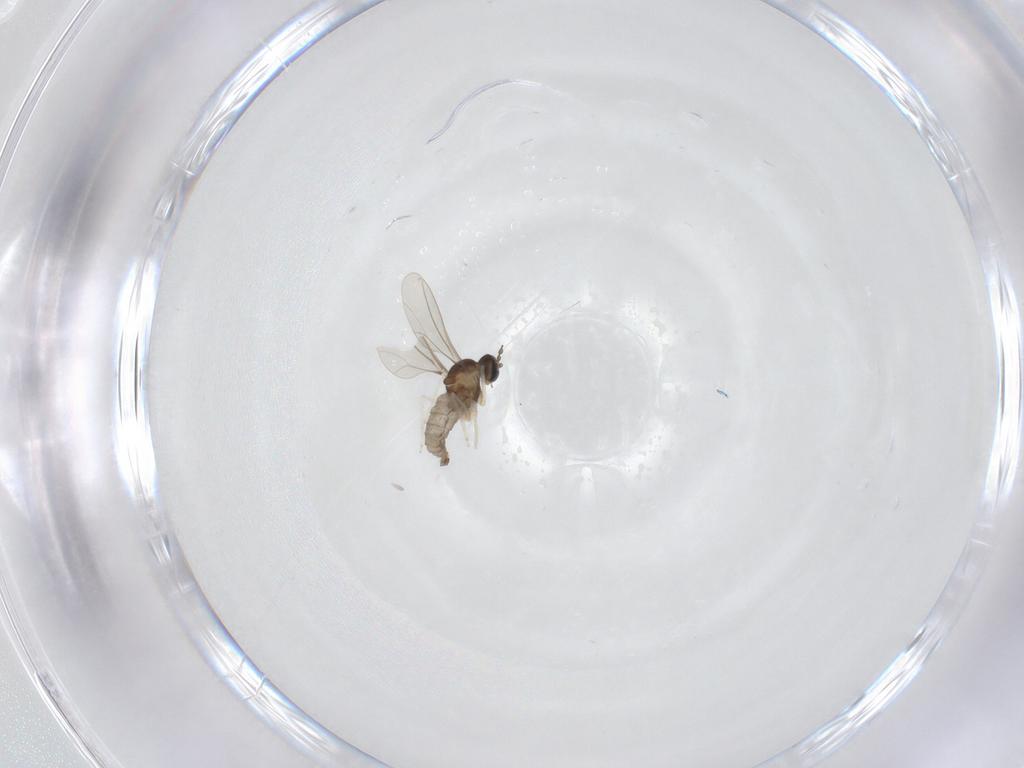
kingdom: Animalia
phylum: Arthropoda
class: Insecta
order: Diptera
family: Cecidomyiidae
